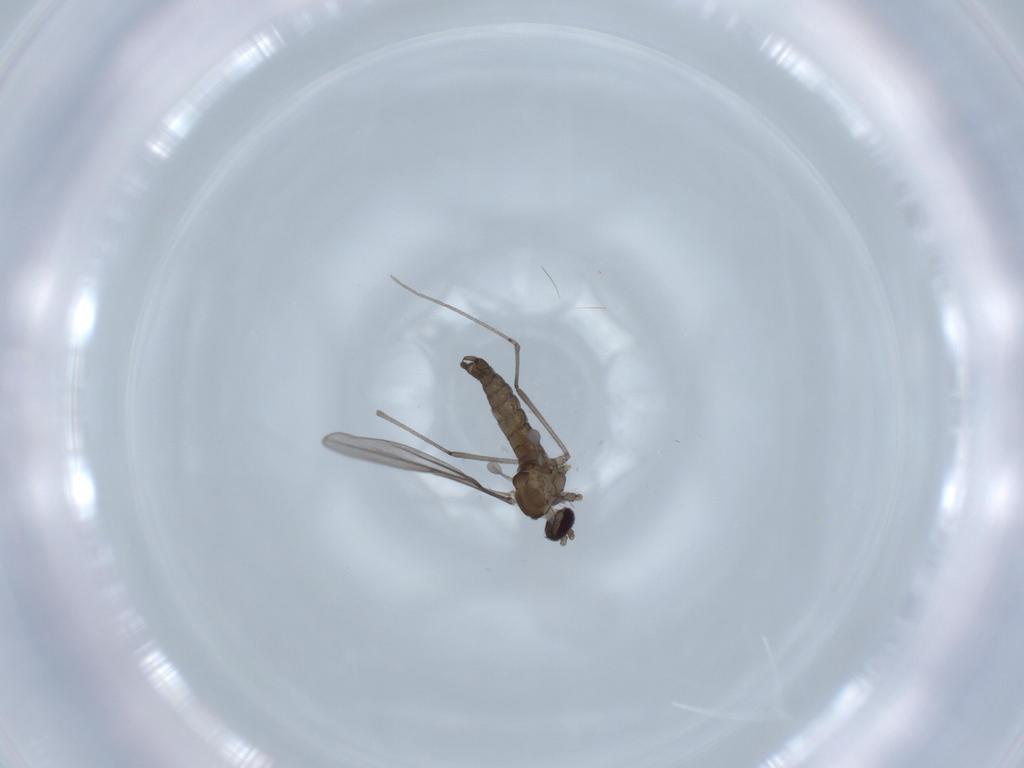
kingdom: Animalia
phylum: Arthropoda
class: Insecta
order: Diptera
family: Cecidomyiidae
